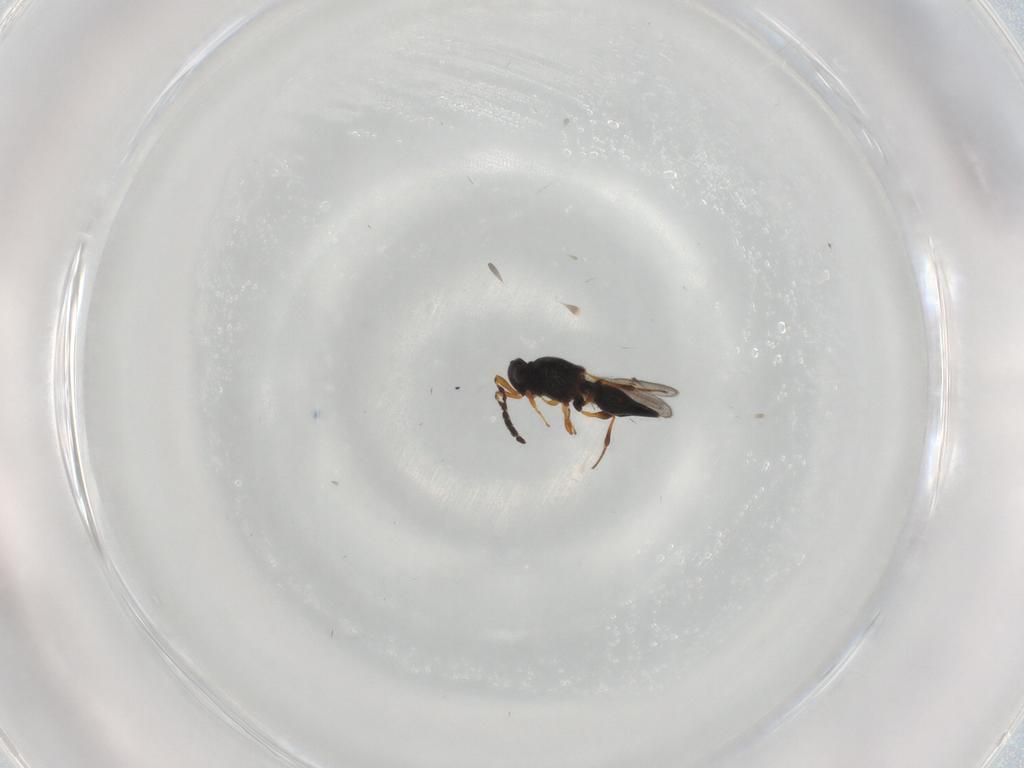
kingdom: Animalia
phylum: Arthropoda
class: Insecta
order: Hymenoptera
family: Platygastridae
